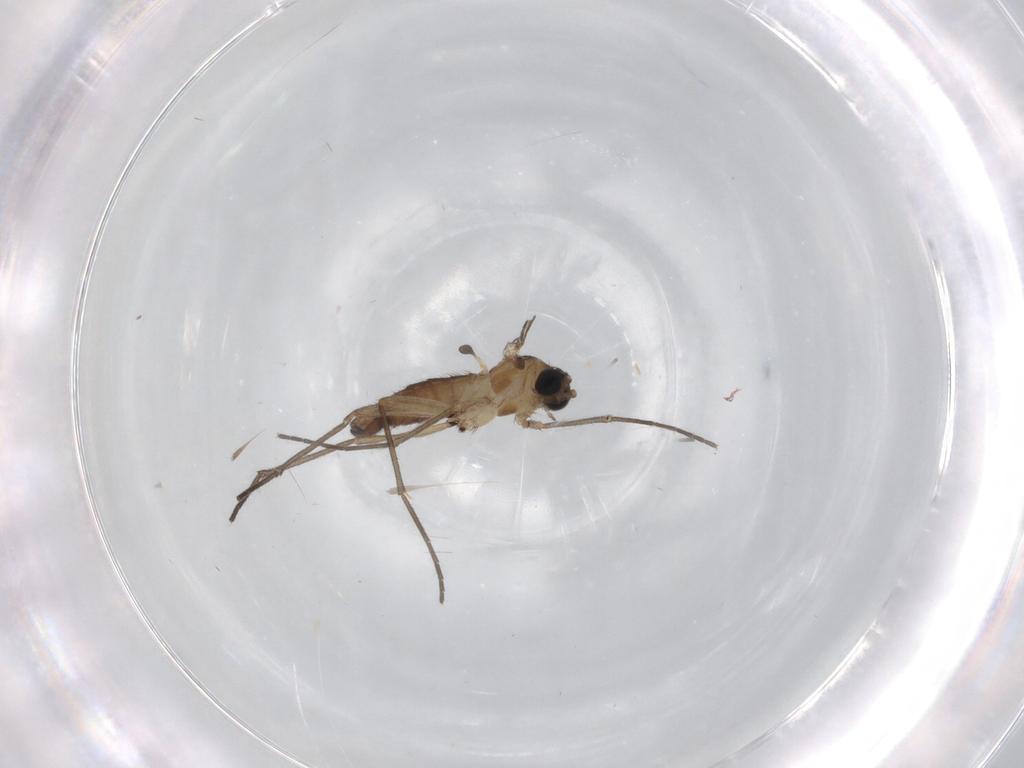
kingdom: Animalia
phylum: Arthropoda
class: Insecta
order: Diptera
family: Sciaridae
